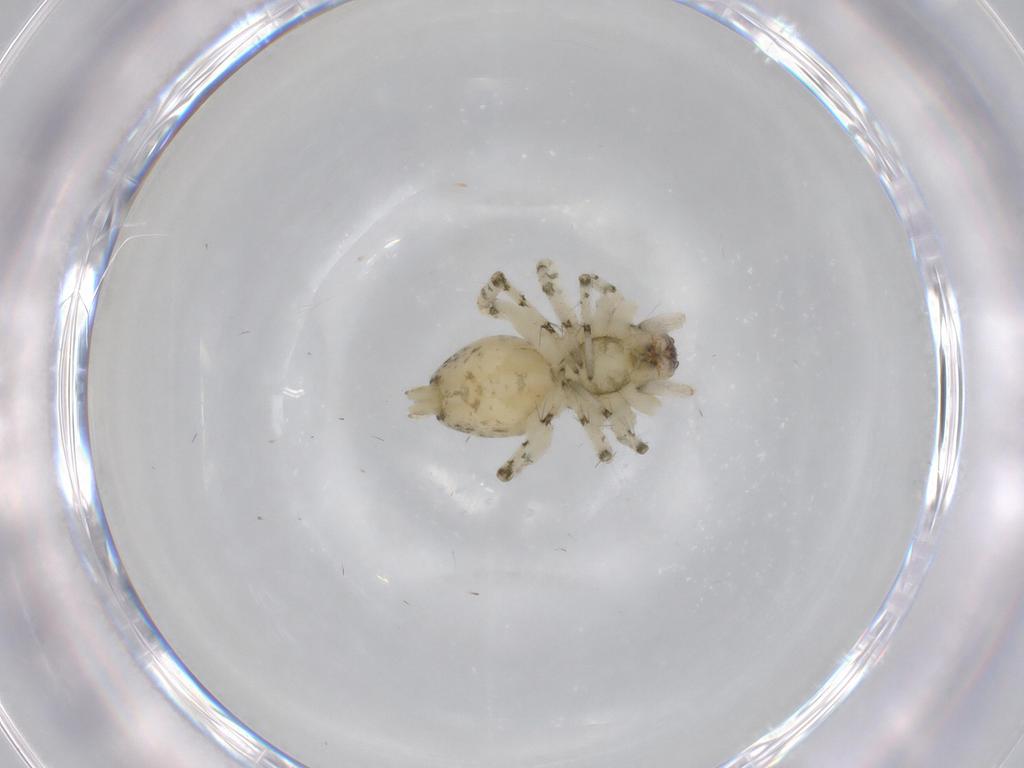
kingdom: Animalia
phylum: Arthropoda
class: Arachnida
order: Araneae
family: Anyphaenidae
